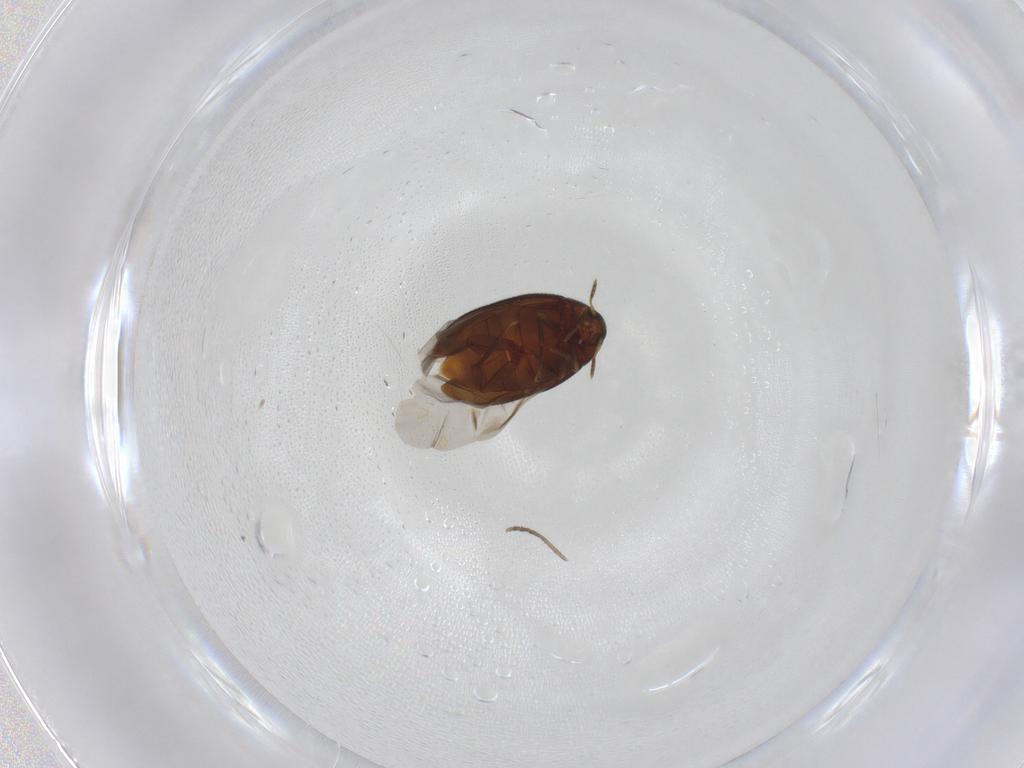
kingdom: Animalia
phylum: Arthropoda
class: Insecta
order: Coleoptera
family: Melandryidae
